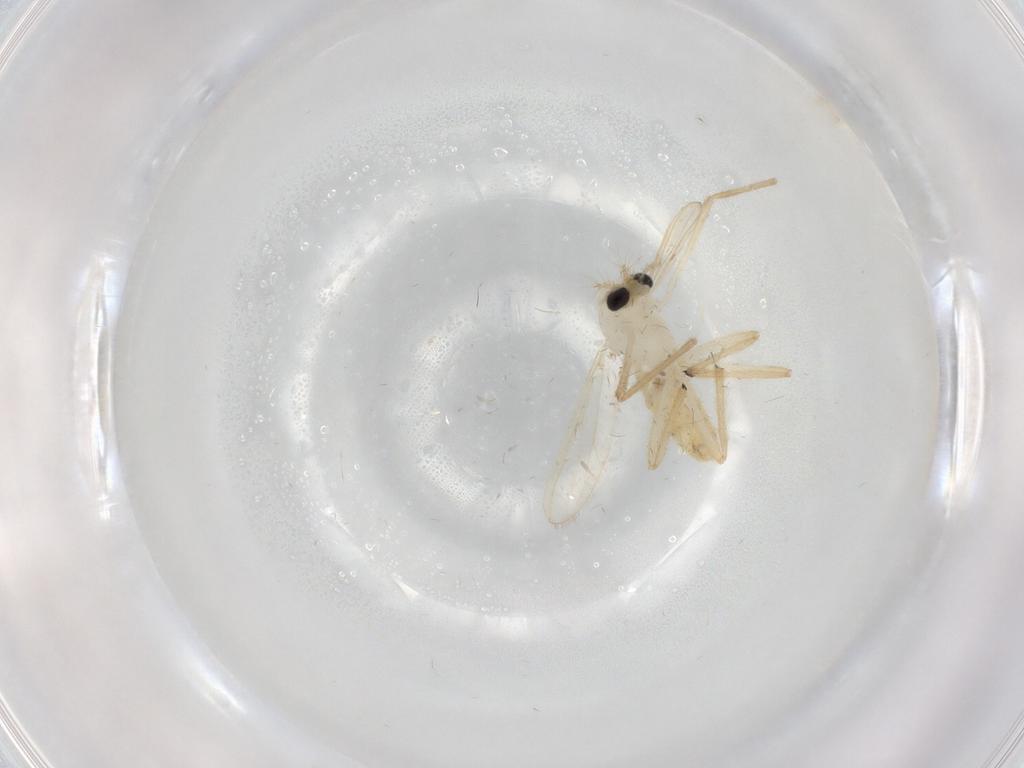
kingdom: Animalia
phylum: Arthropoda
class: Insecta
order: Diptera
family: Chironomidae
